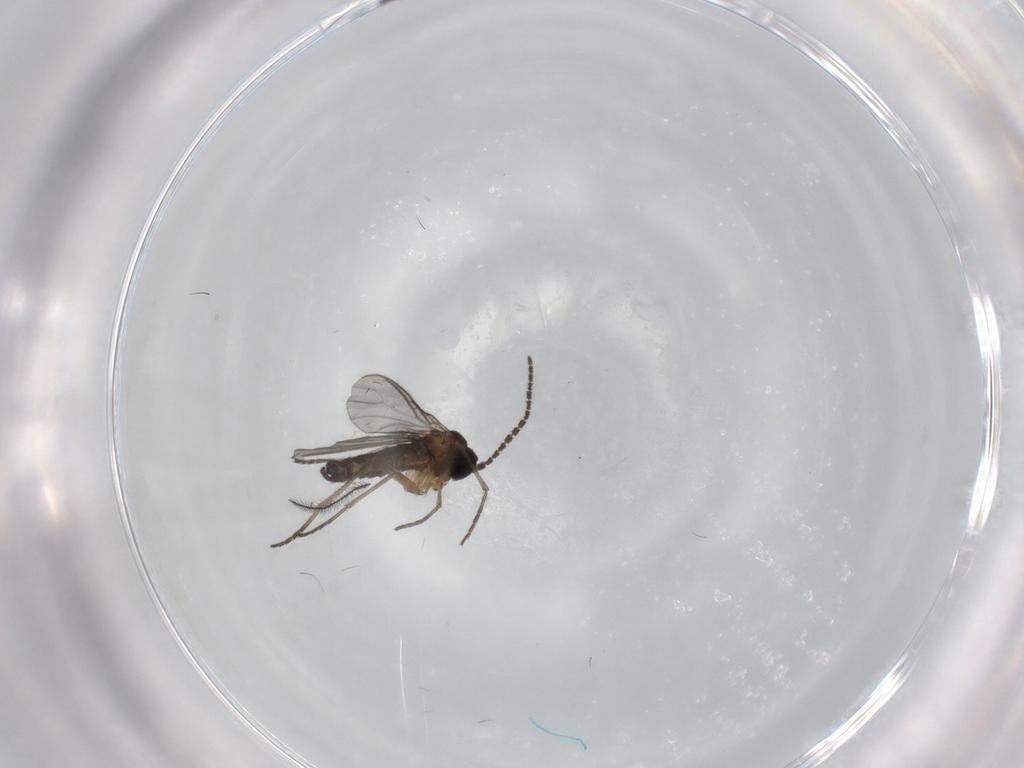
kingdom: Animalia
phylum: Arthropoda
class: Insecta
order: Diptera
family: Sciaridae
